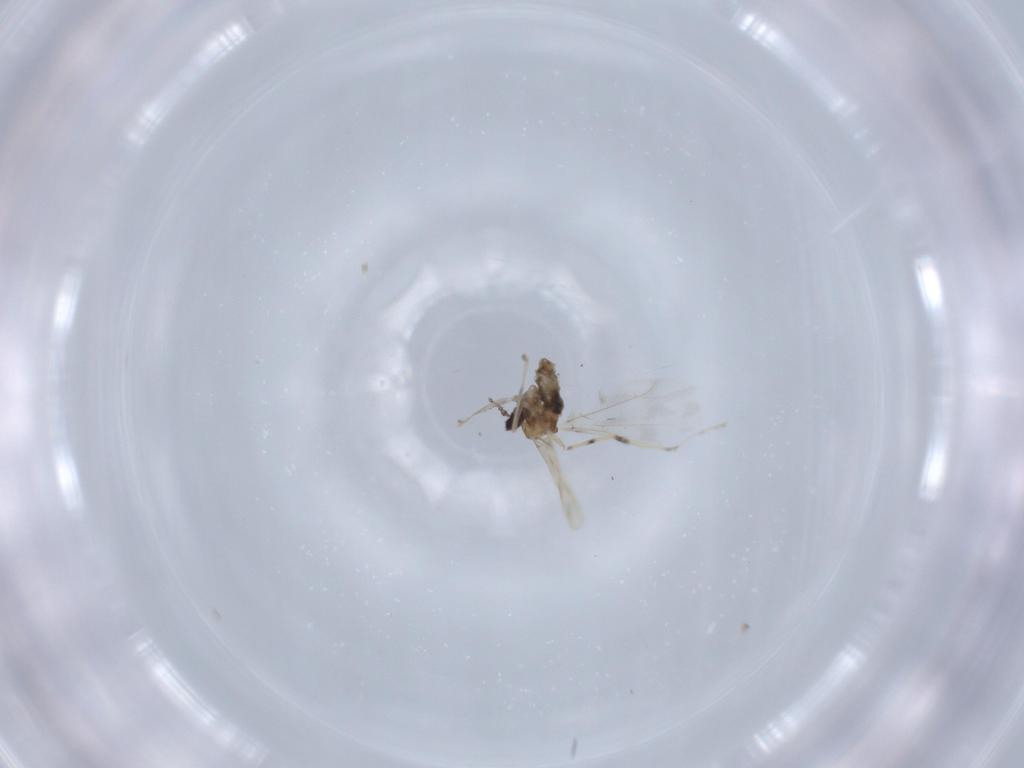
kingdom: Animalia
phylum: Arthropoda
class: Insecta
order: Diptera
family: Cecidomyiidae
